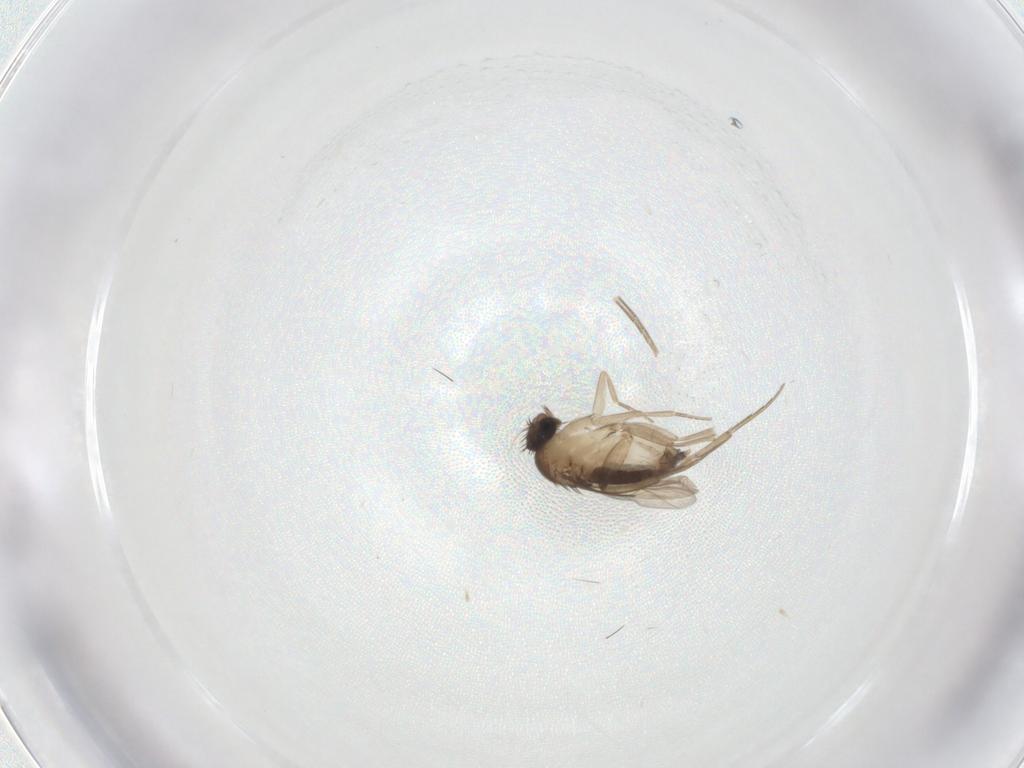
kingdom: Animalia
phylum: Arthropoda
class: Insecta
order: Diptera
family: Phoridae
